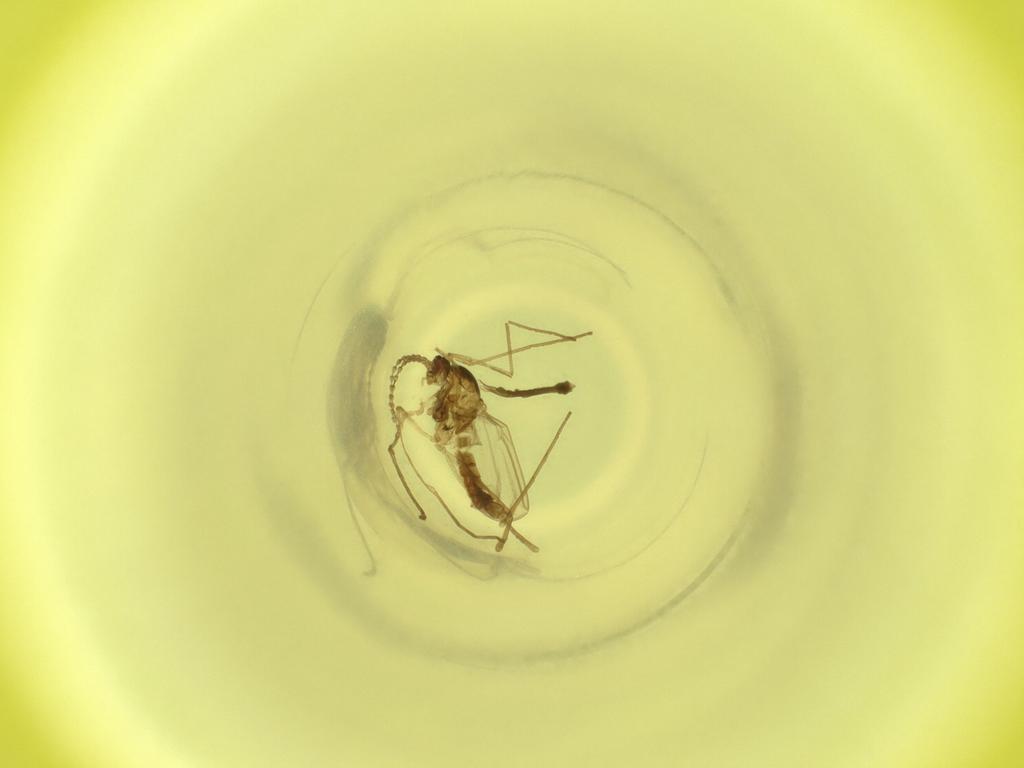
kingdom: Animalia
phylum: Arthropoda
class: Insecta
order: Diptera
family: Cecidomyiidae
